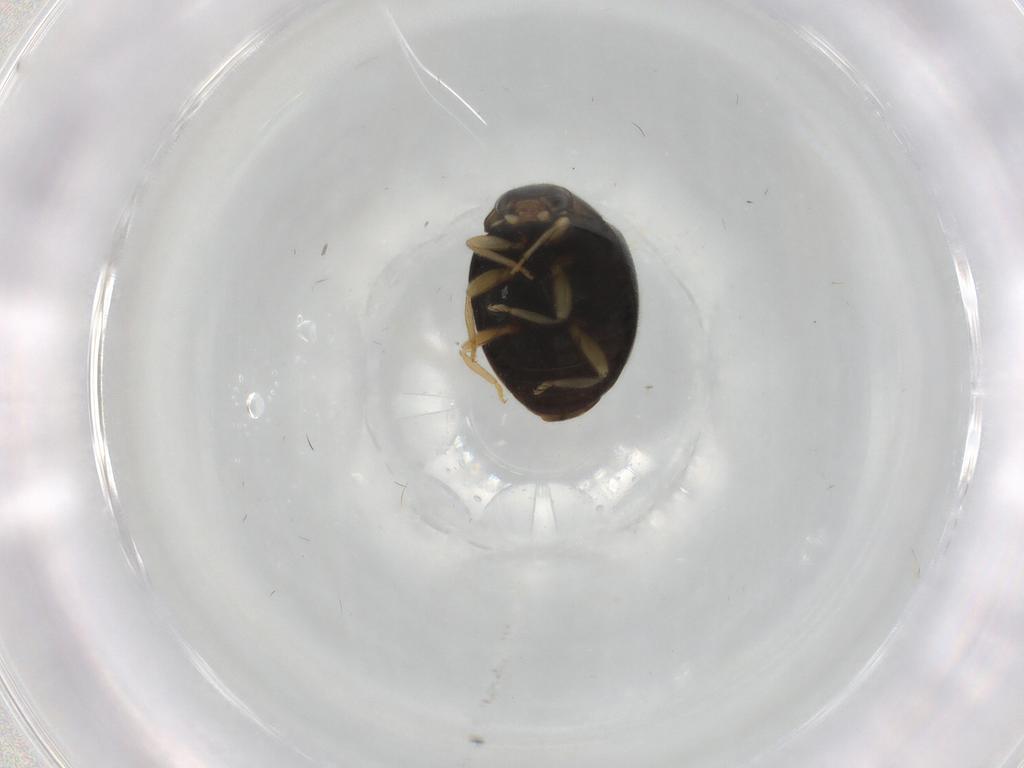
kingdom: Animalia
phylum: Arthropoda
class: Insecta
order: Coleoptera
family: Coccinellidae
